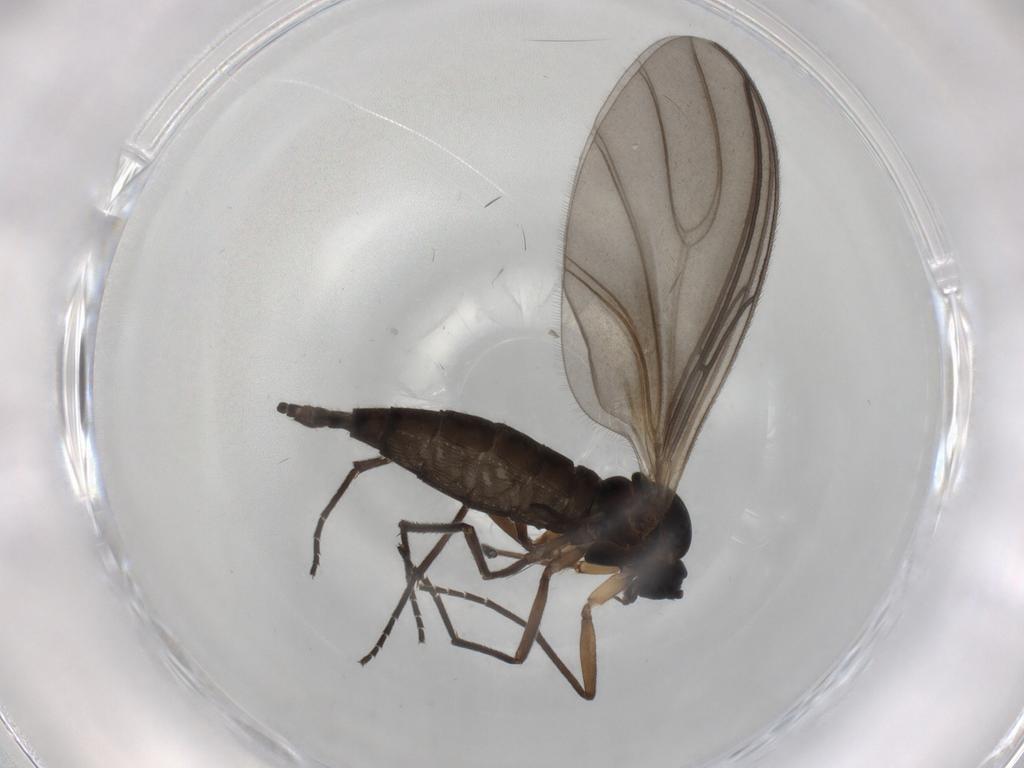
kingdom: Animalia
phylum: Arthropoda
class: Insecta
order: Diptera
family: Sciaridae
